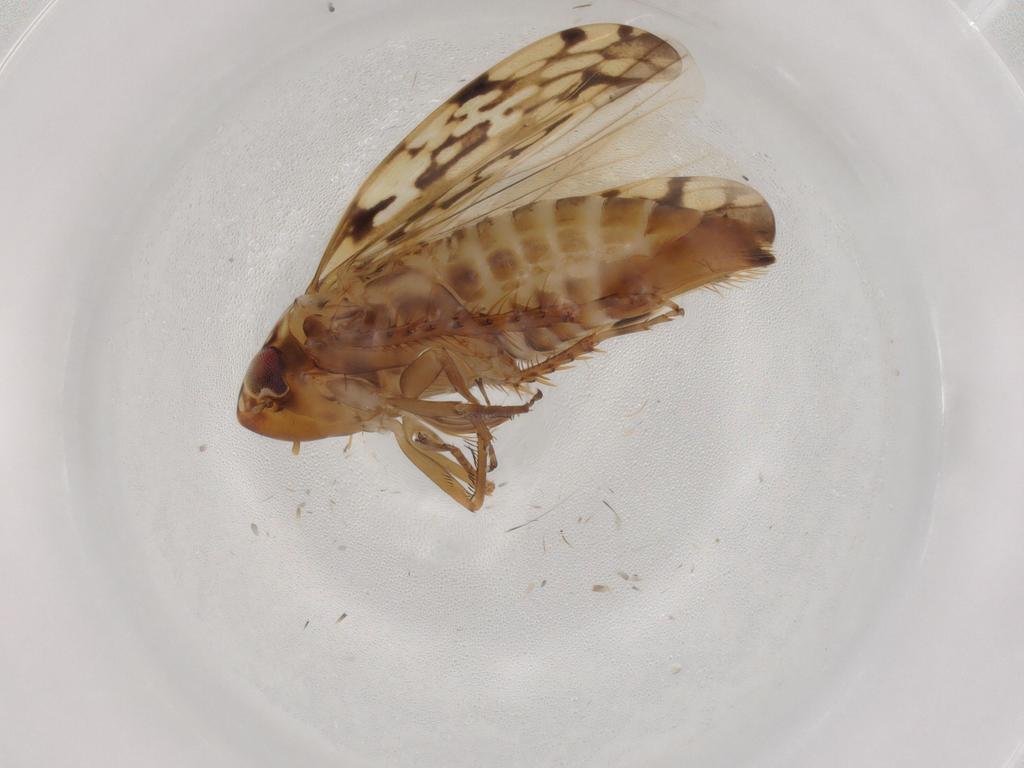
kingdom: Animalia
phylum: Arthropoda
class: Insecta
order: Hemiptera
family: Cicadellidae
